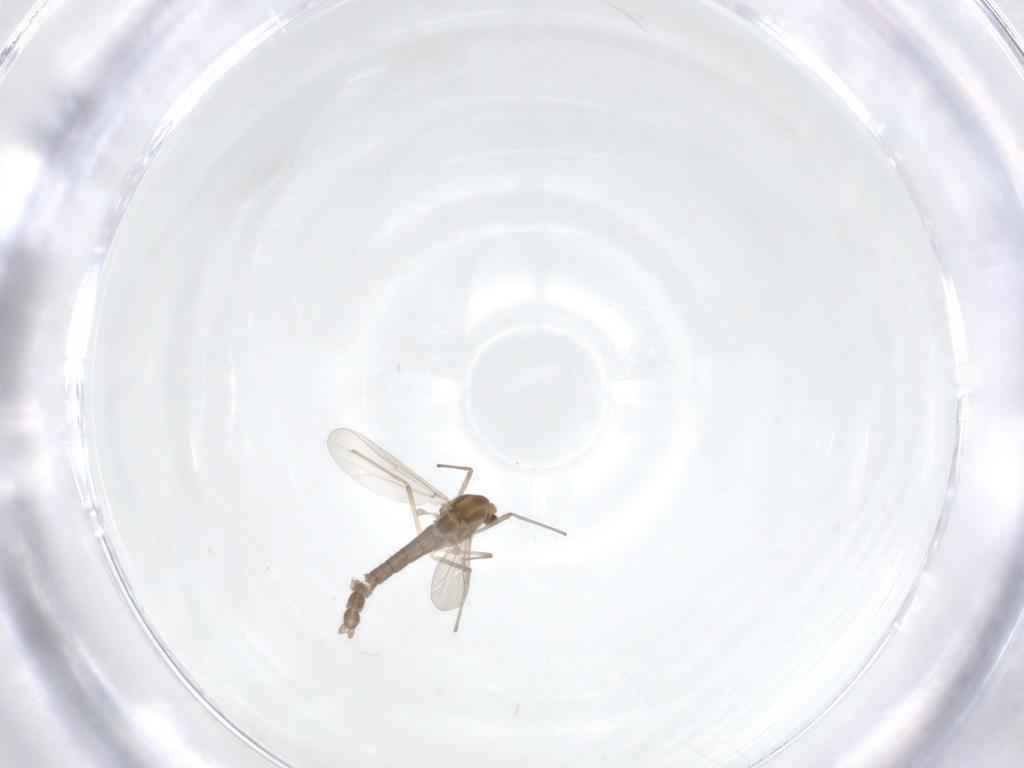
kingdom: Animalia
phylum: Arthropoda
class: Insecta
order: Diptera
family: Chironomidae
